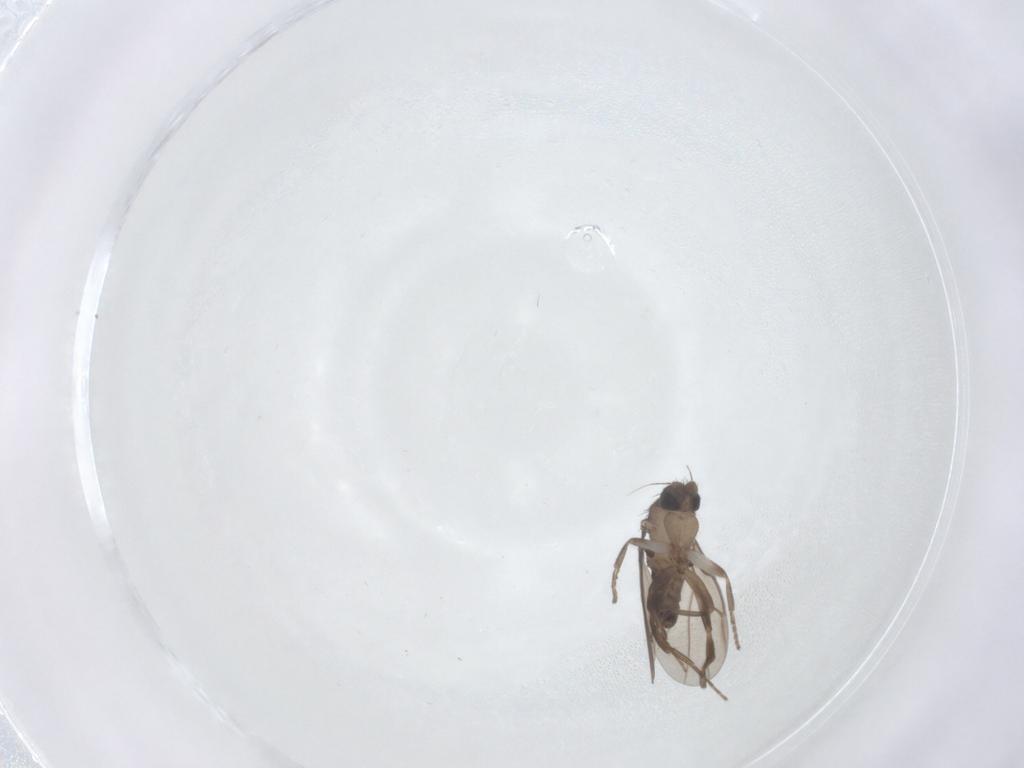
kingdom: Animalia
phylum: Arthropoda
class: Insecta
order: Diptera
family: Chironomidae
